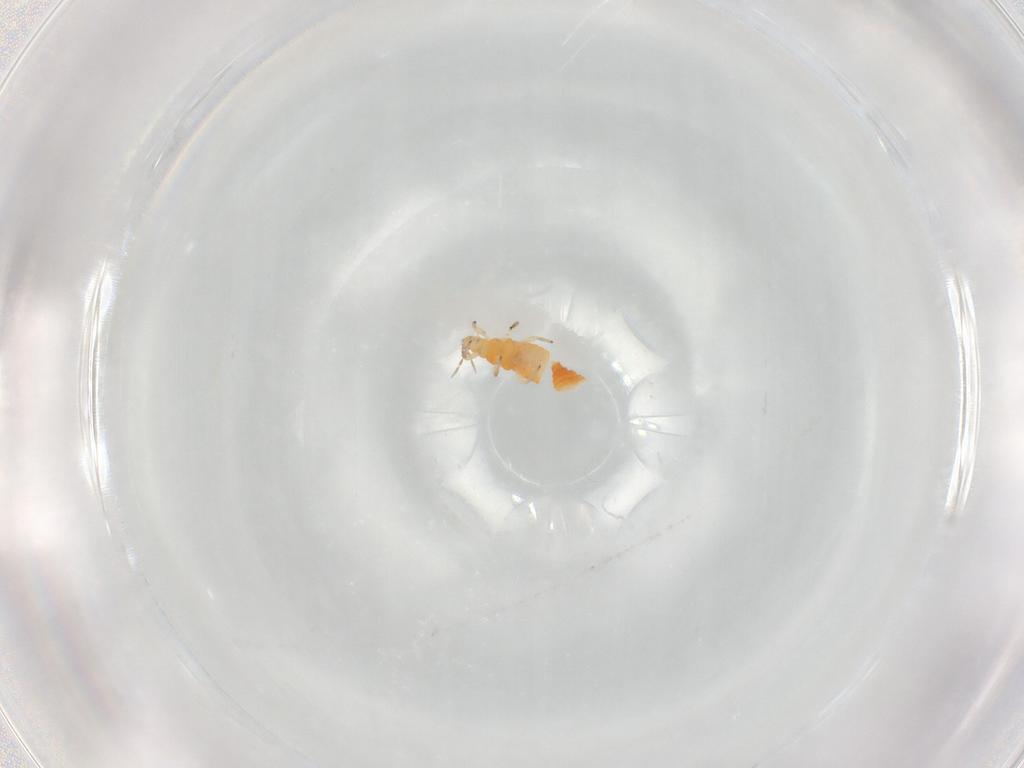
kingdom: Animalia
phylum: Arthropoda
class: Insecta
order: Thysanoptera
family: Aeolothripidae
